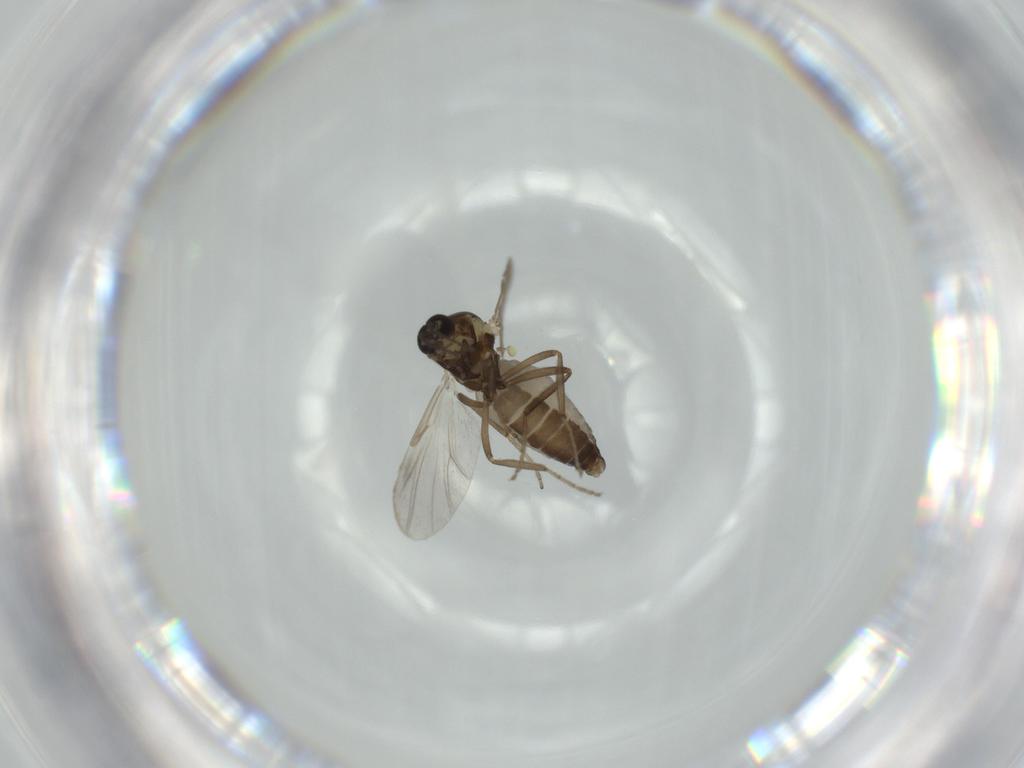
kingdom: Animalia
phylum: Arthropoda
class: Insecta
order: Diptera
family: Ceratopogonidae
